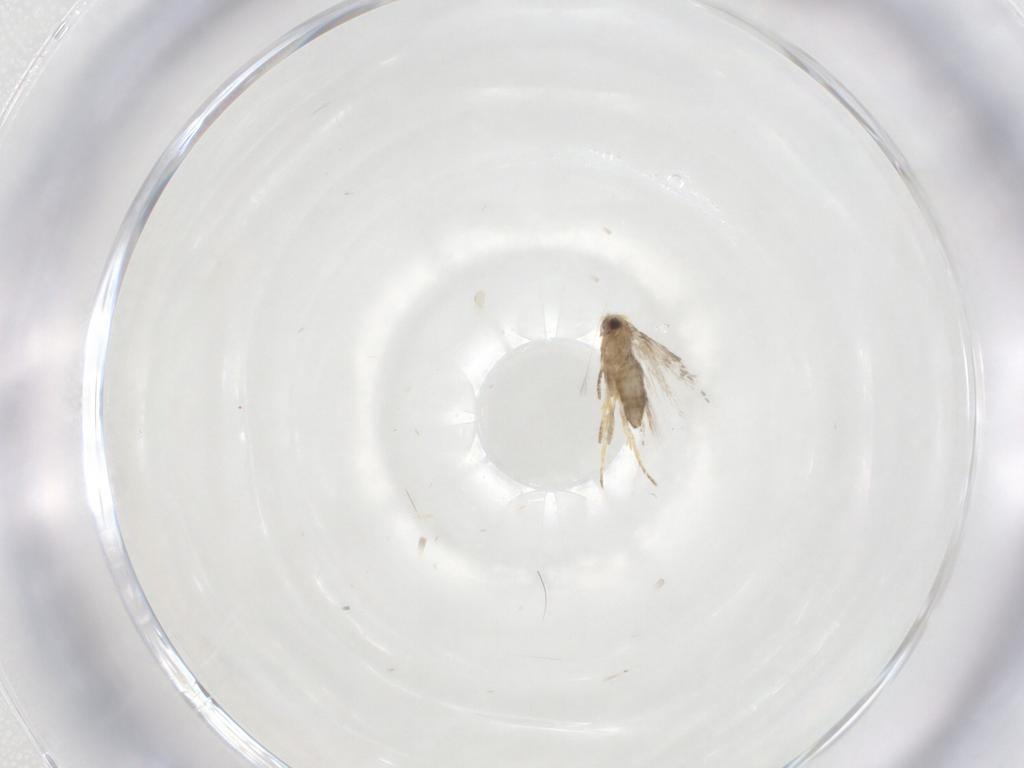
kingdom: Animalia
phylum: Arthropoda
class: Insecta
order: Lepidoptera
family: Nepticulidae
